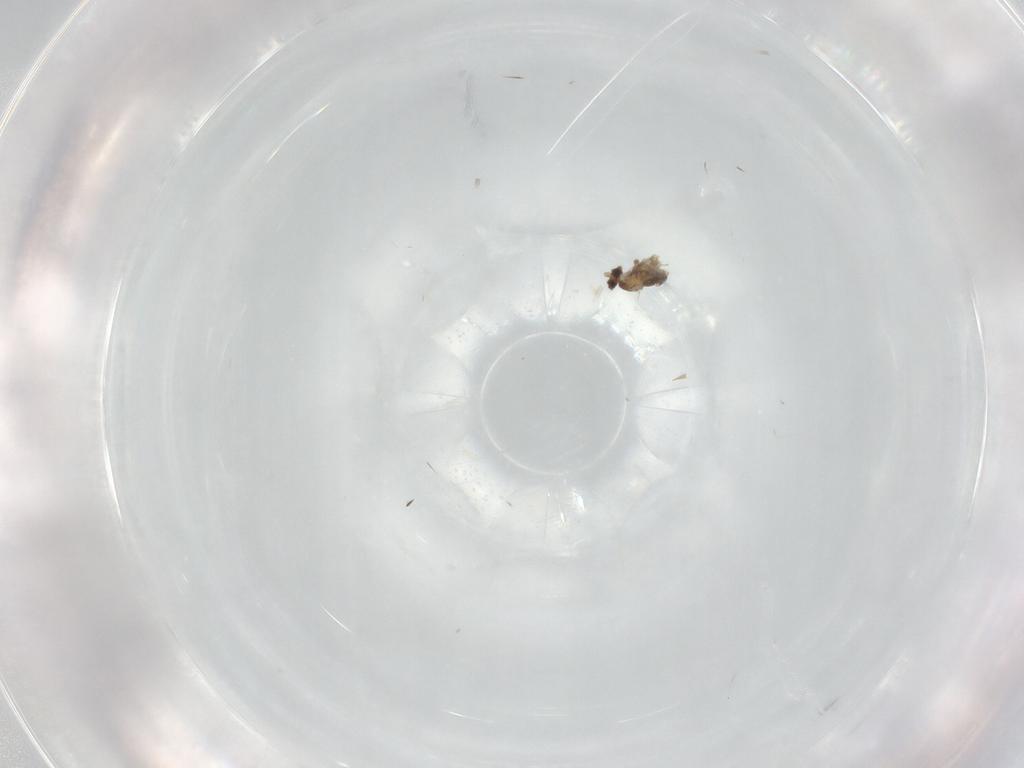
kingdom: Animalia
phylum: Arthropoda
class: Insecta
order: Diptera
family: Cecidomyiidae
